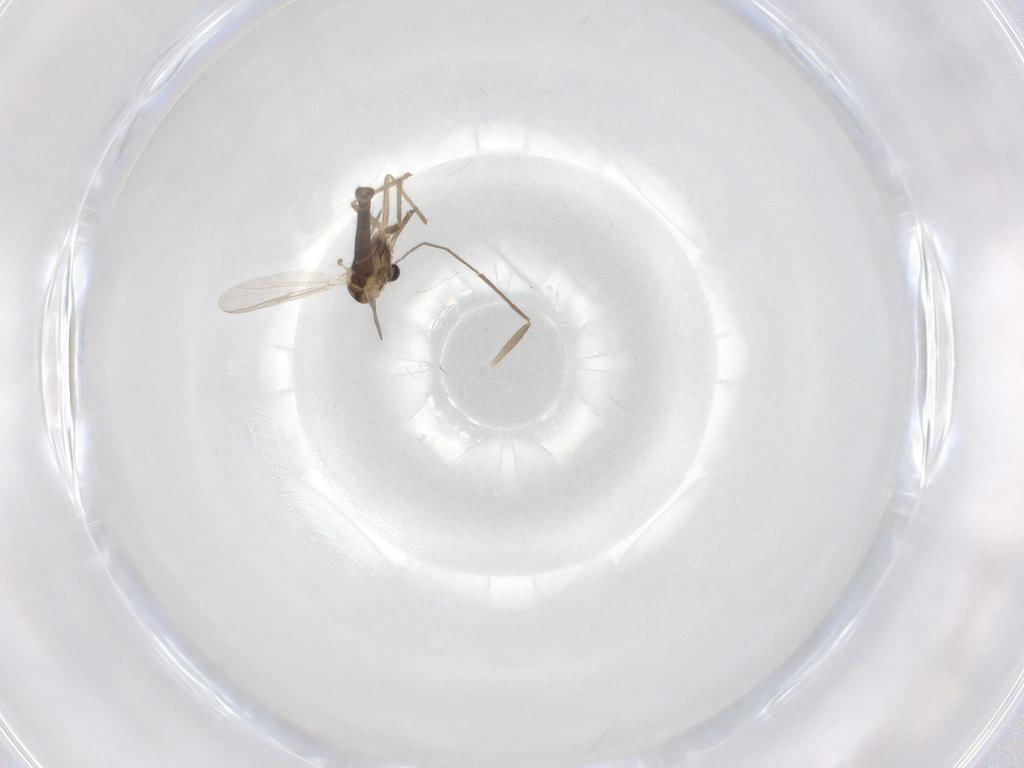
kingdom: Animalia
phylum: Arthropoda
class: Insecta
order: Diptera
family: Chironomidae
